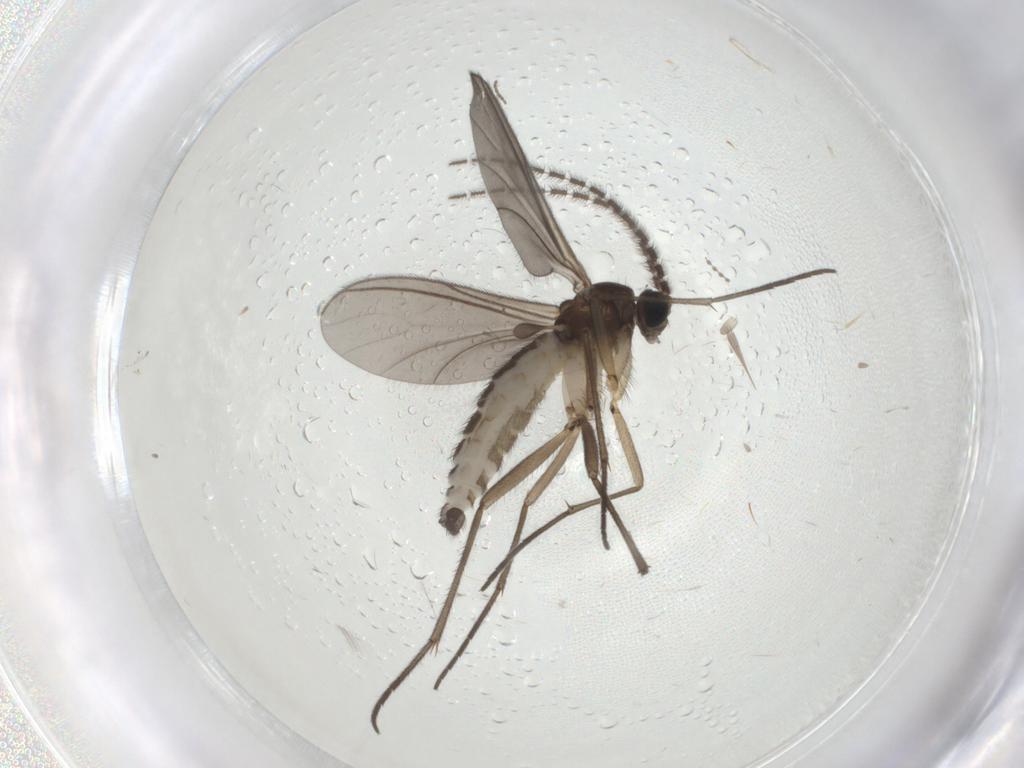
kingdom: Animalia
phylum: Arthropoda
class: Insecta
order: Diptera
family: Sciaridae
